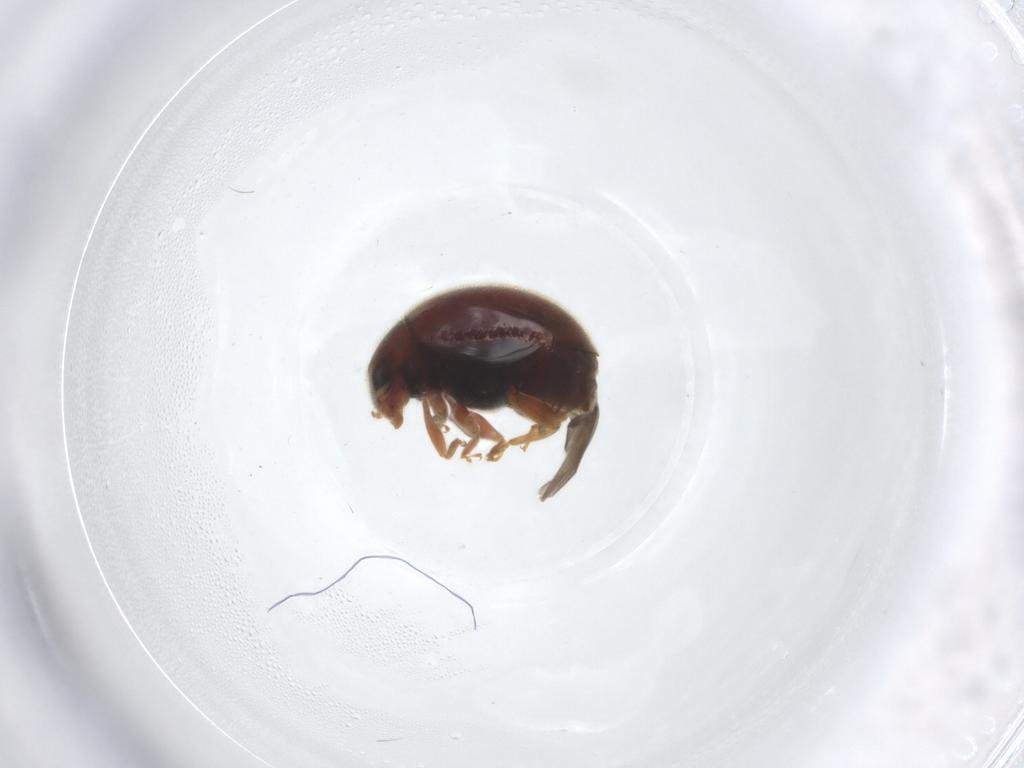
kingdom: Animalia
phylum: Arthropoda
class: Insecta
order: Coleoptera
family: Coccinellidae
